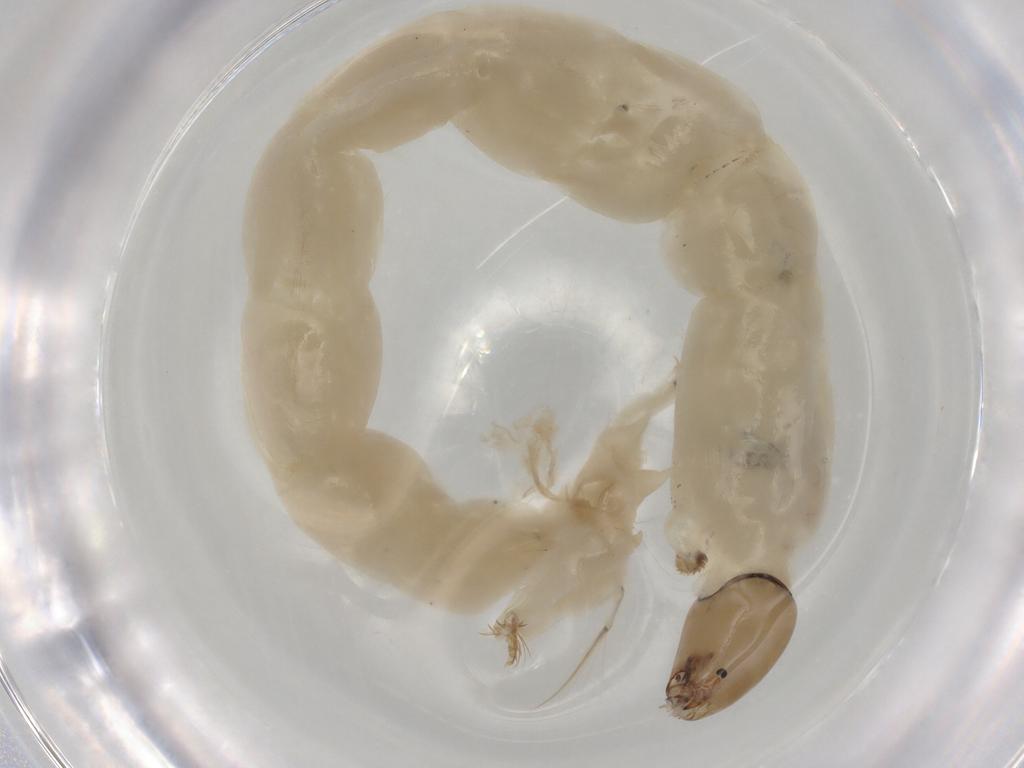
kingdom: Animalia
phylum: Arthropoda
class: Insecta
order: Diptera
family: Chironomidae
